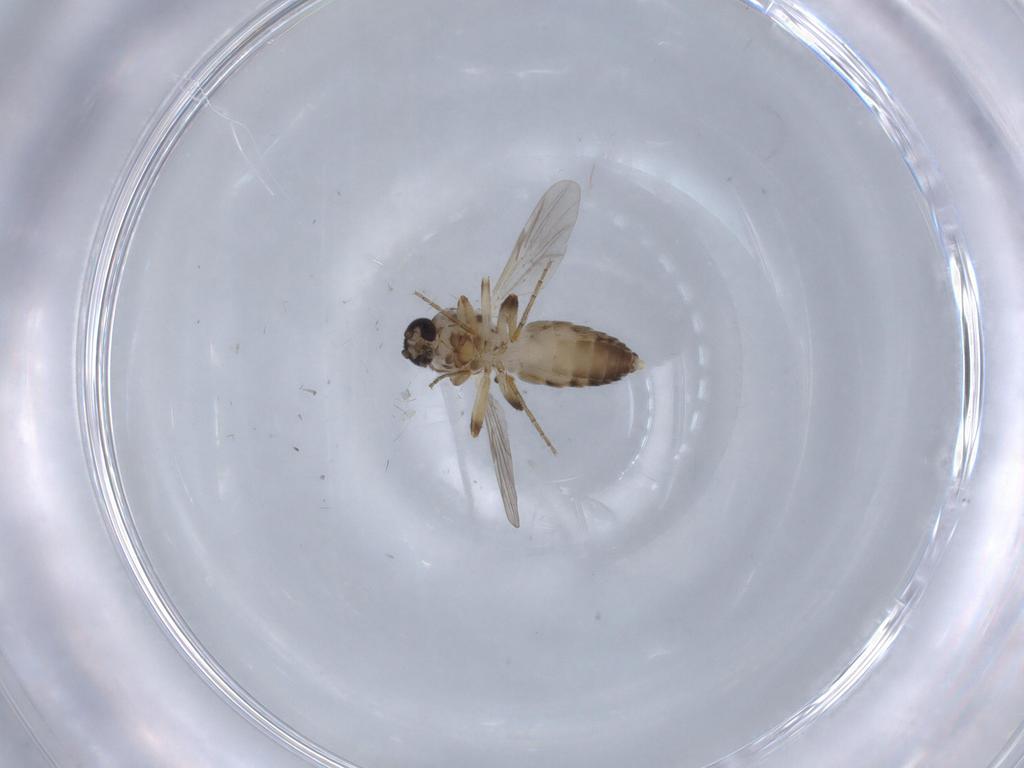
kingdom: Animalia
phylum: Arthropoda
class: Insecta
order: Diptera
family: Ceratopogonidae
